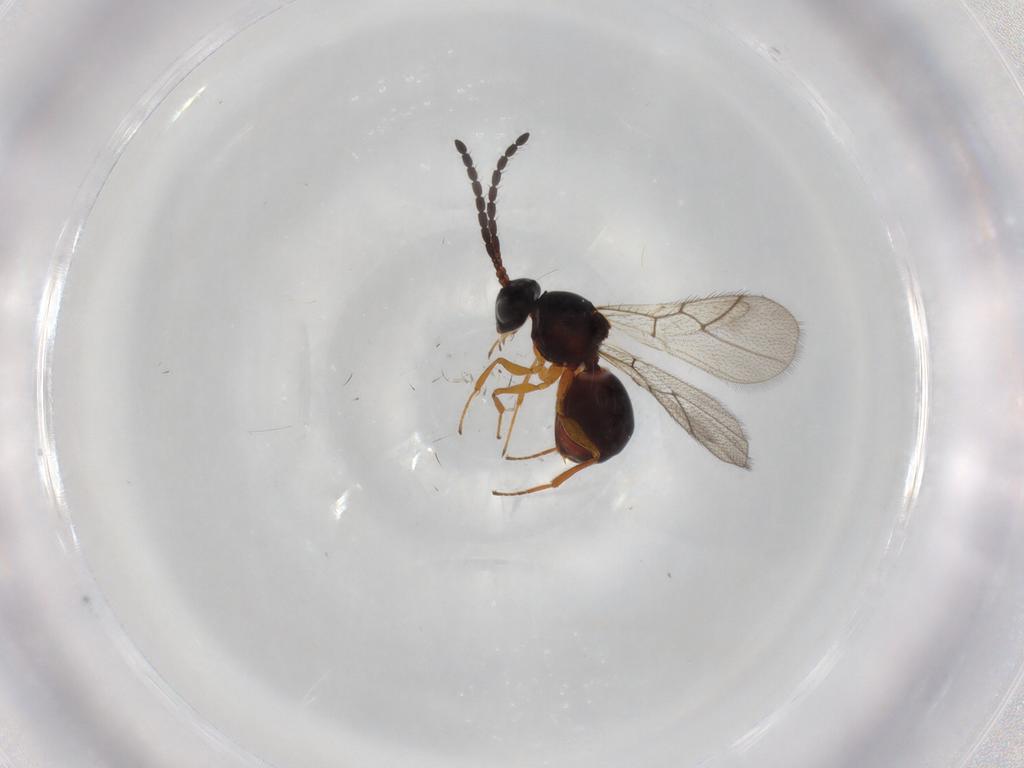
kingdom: Animalia
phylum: Arthropoda
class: Insecta
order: Hymenoptera
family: Figitidae
